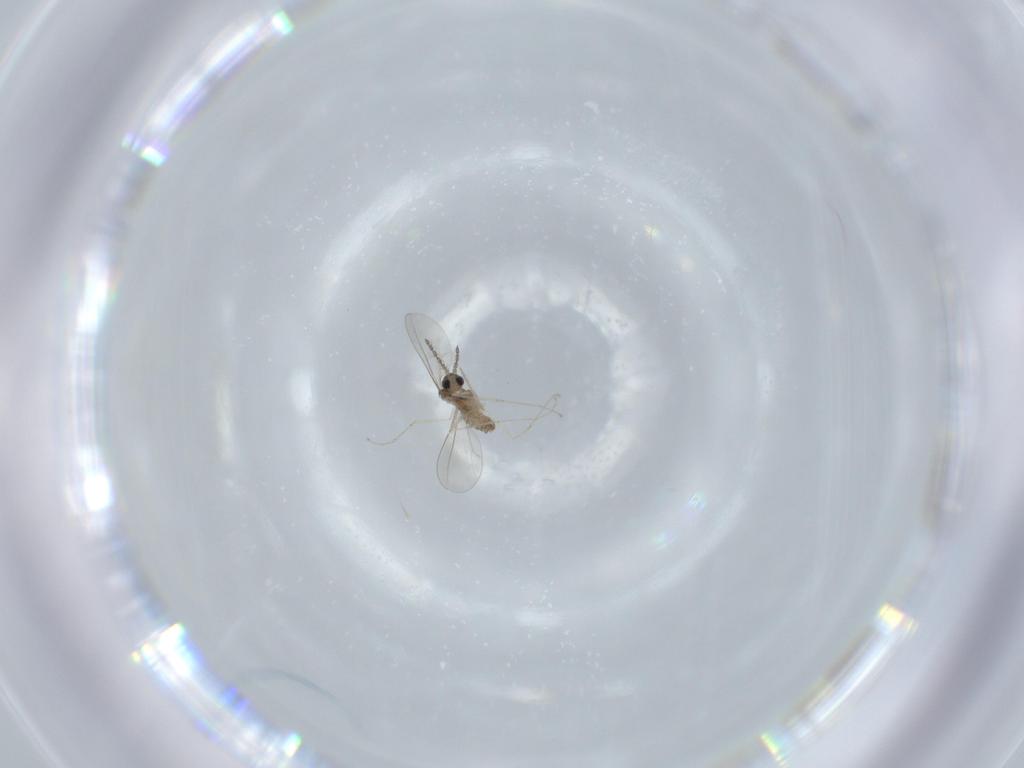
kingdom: Animalia
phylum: Arthropoda
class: Insecta
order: Diptera
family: Cecidomyiidae
